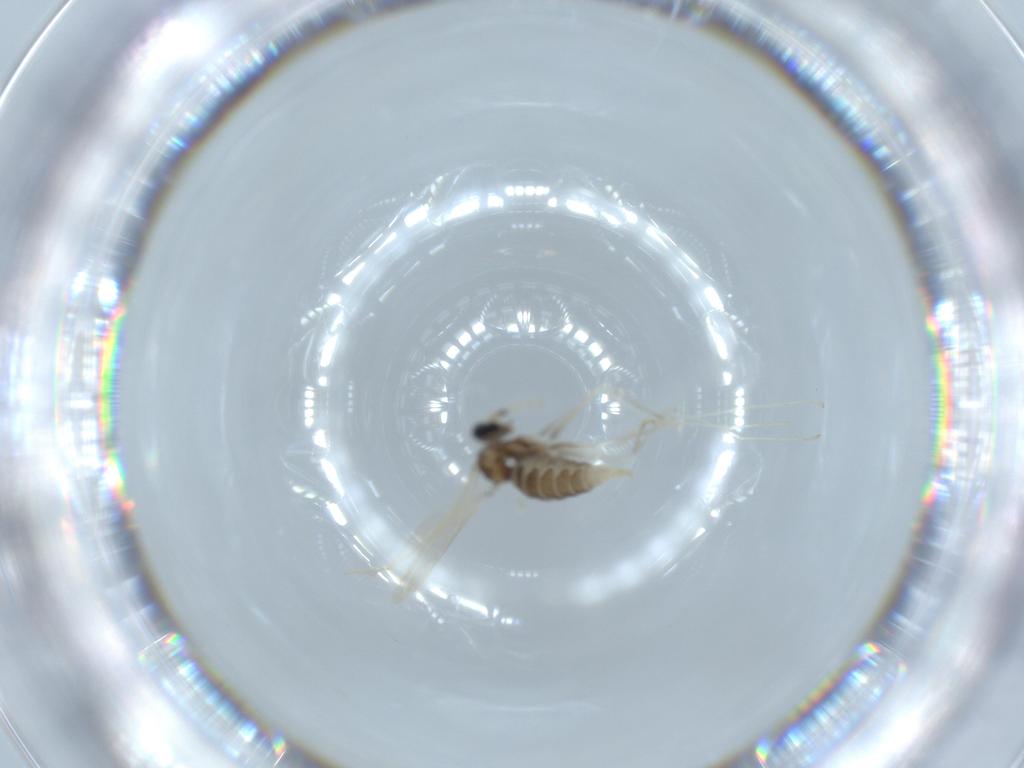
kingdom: Animalia
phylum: Arthropoda
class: Insecta
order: Diptera
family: Cecidomyiidae
